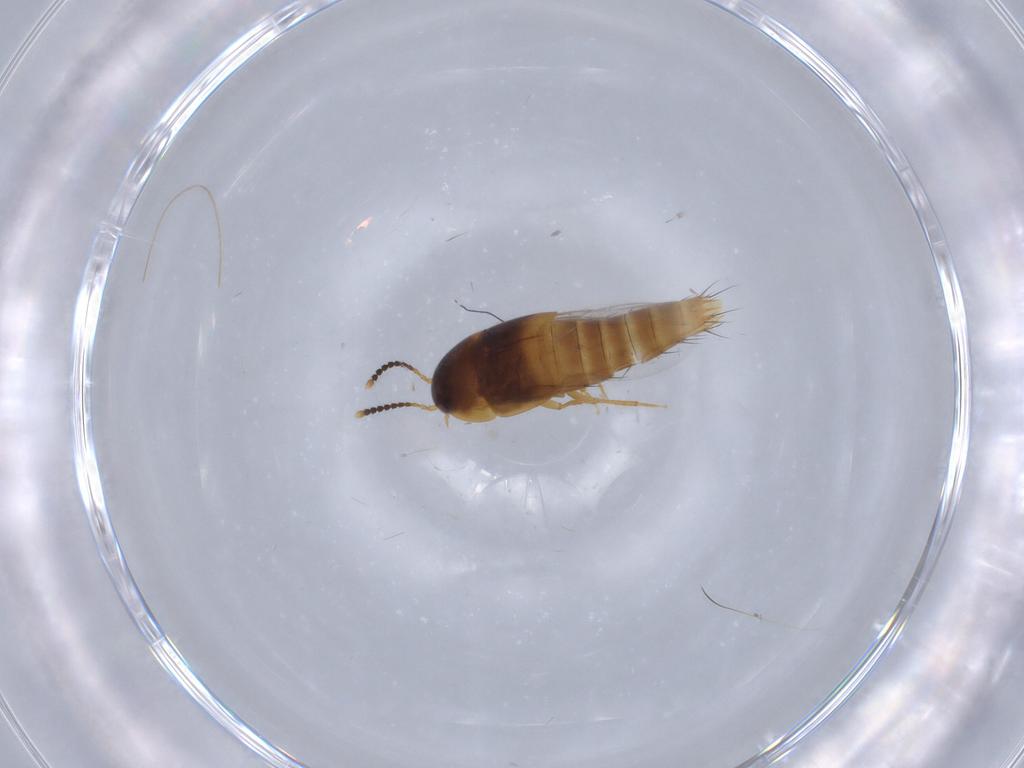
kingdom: Animalia
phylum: Arthropoda
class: Insecta
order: Coleoptera
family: Staphylinidae
